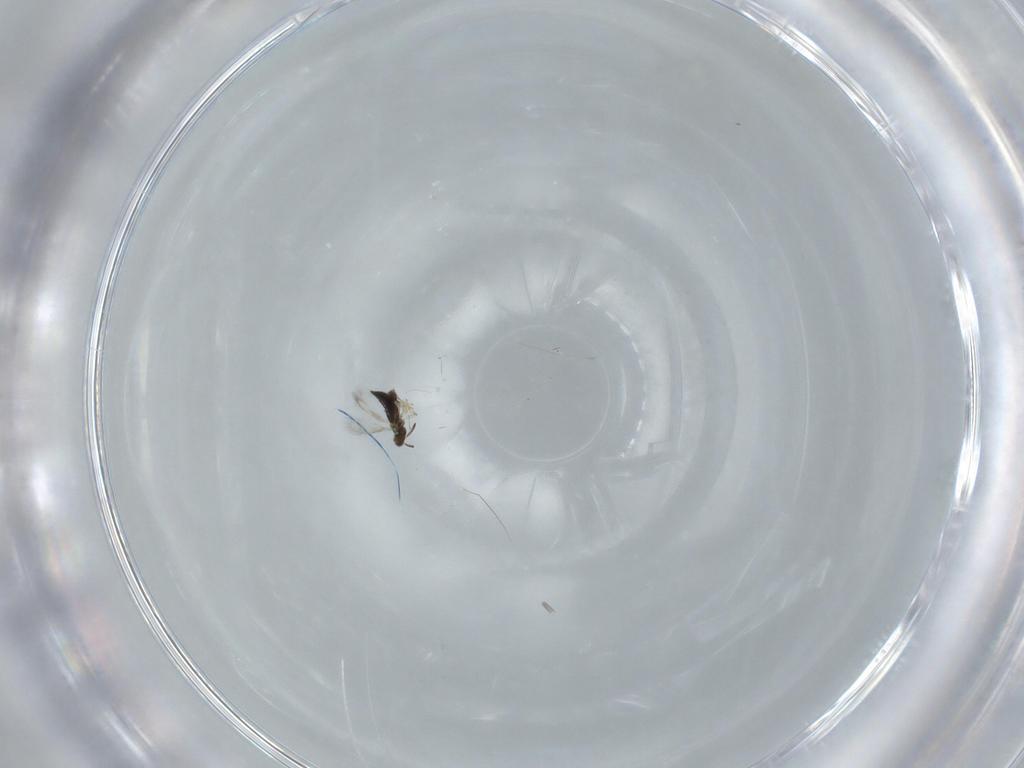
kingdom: Animalia
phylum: Arthropoda
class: Insecta
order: Hymenoptera
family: Signiphoridae
